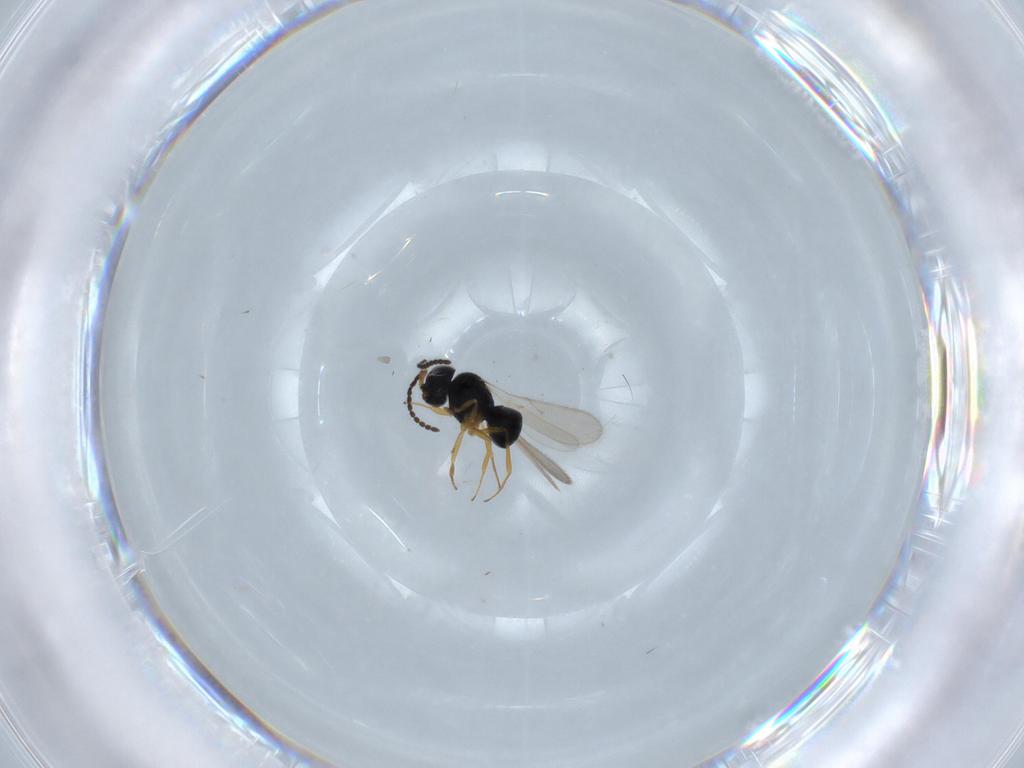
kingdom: Animalia
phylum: Arthropoda
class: Insecta
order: Hymenoptera
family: Scelionidae
